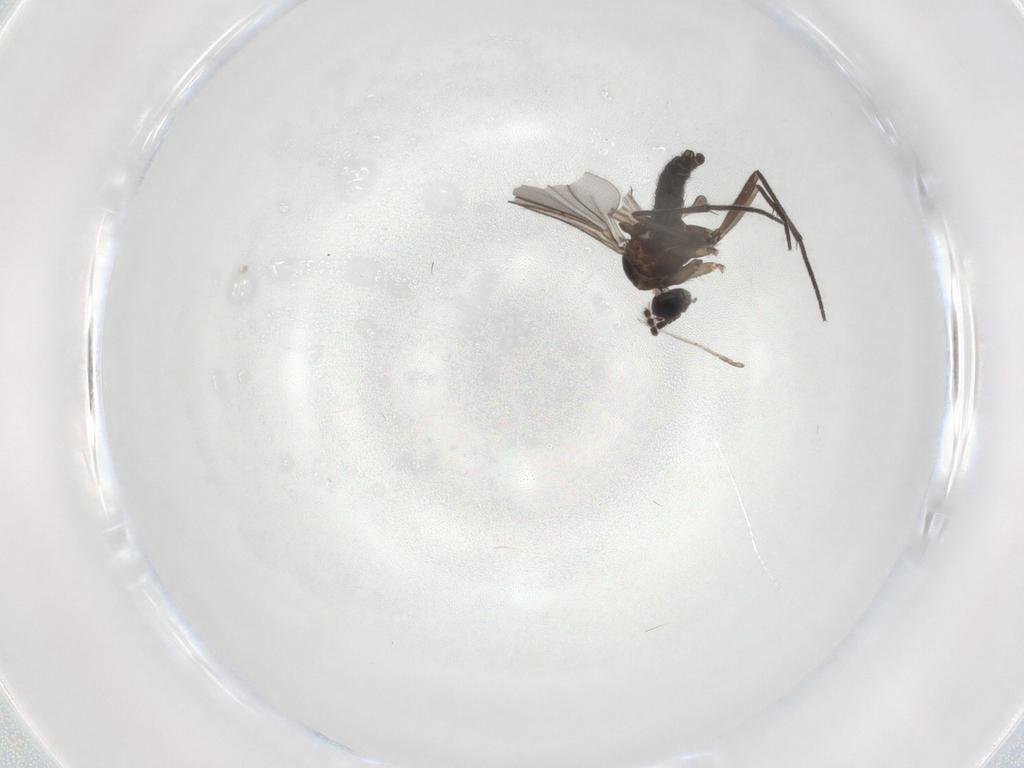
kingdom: Animalia
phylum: Arthropoda
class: Insecta
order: Diptera
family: Sciaridae
